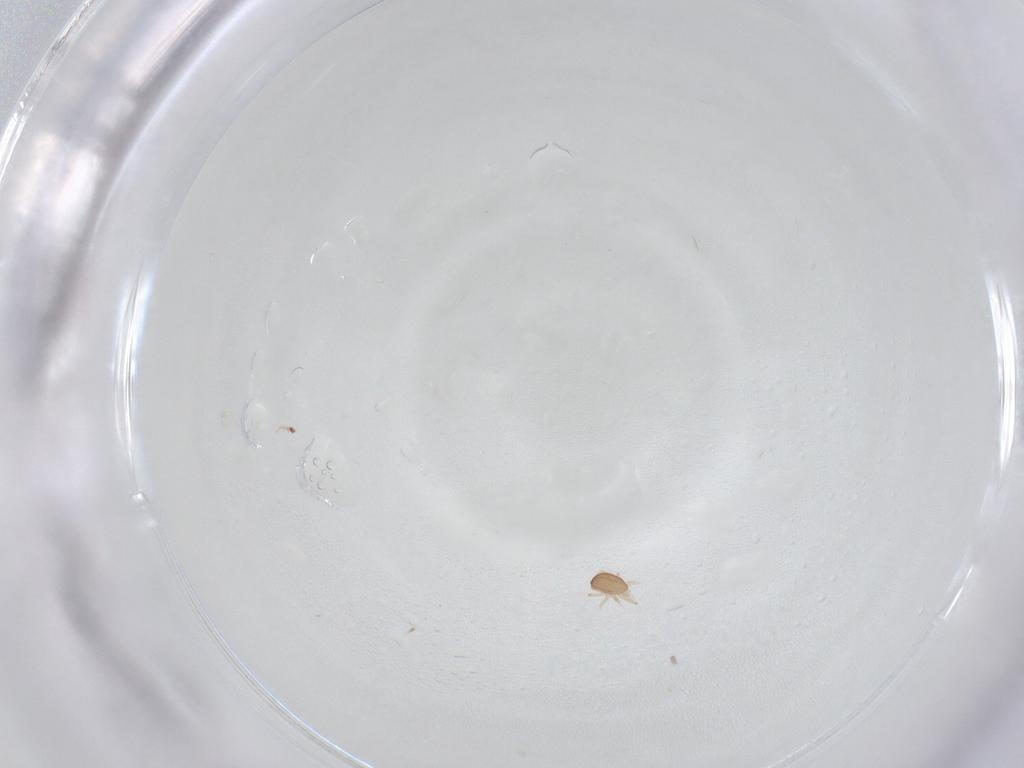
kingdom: Animalia
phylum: Arthropoda
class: Arachnida
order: Mesostigmata
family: Ascidae
